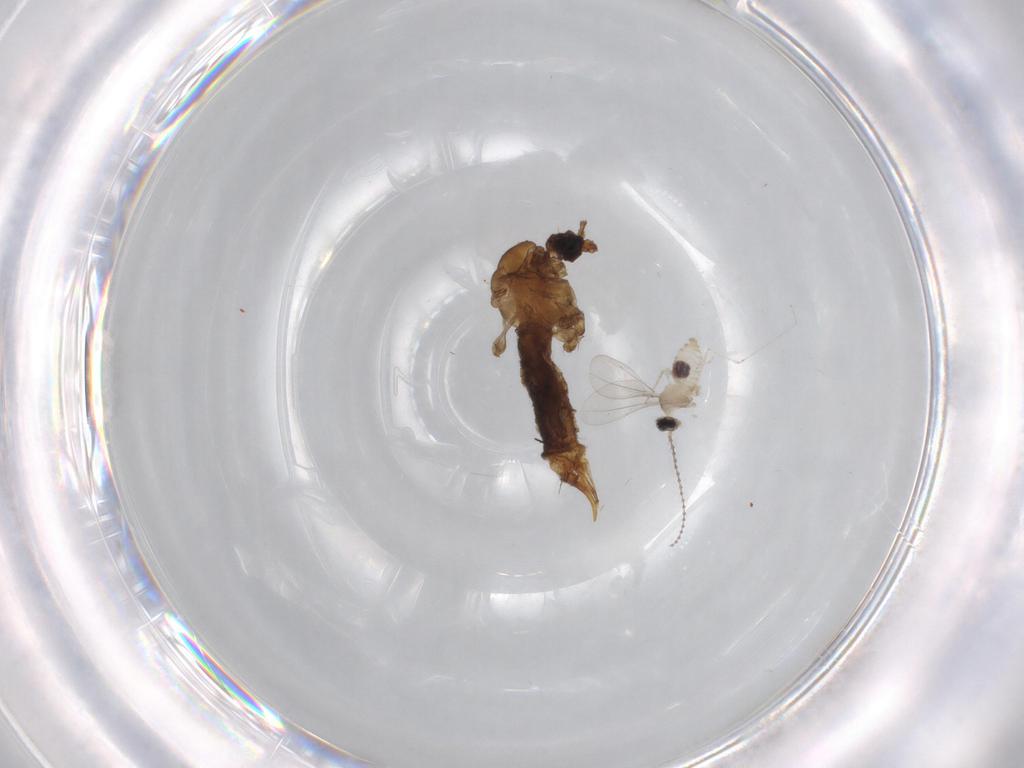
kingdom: Animalia
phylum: Arthropoda
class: Insecta
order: Diptera
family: Limoniidae
